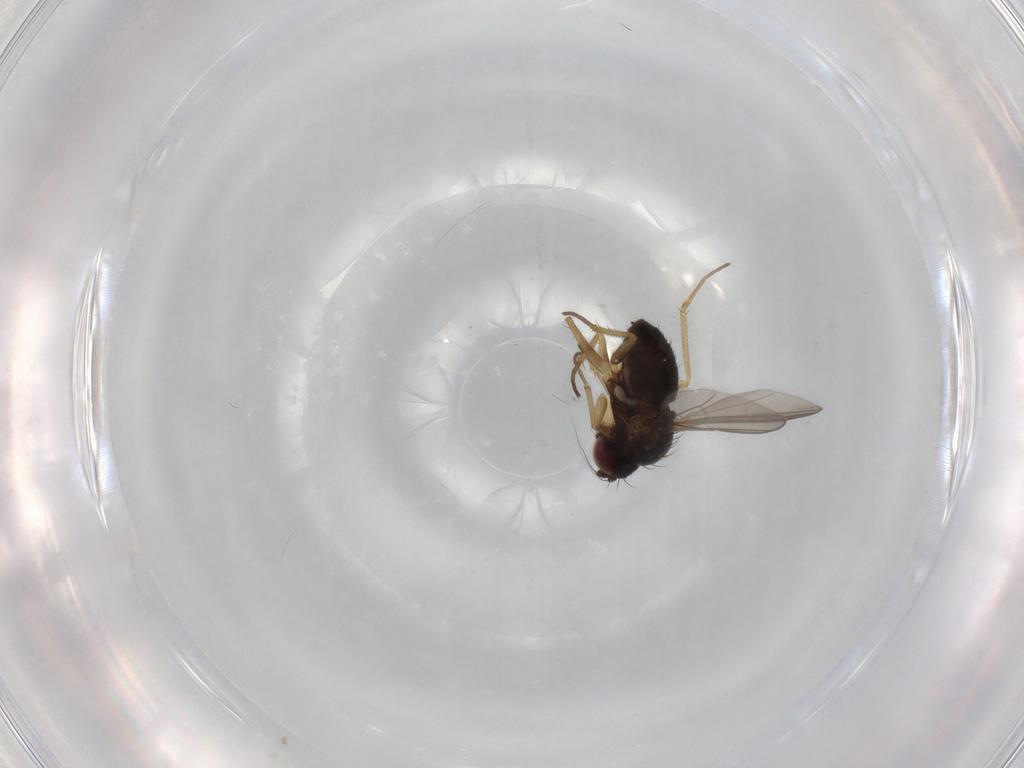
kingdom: Animalia
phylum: Arthropoda
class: Insecta
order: Diptera
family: Dolichopodidae
